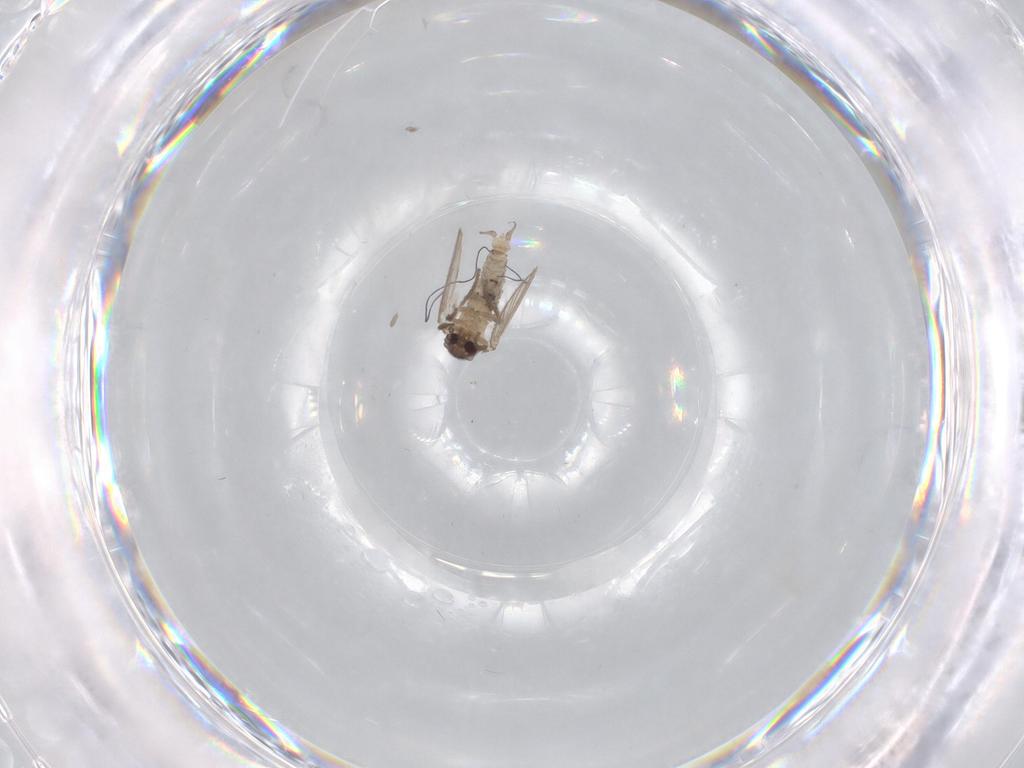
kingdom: Animalia
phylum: Arthropoda
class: Insecta
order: Diptera
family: Psychodidae
